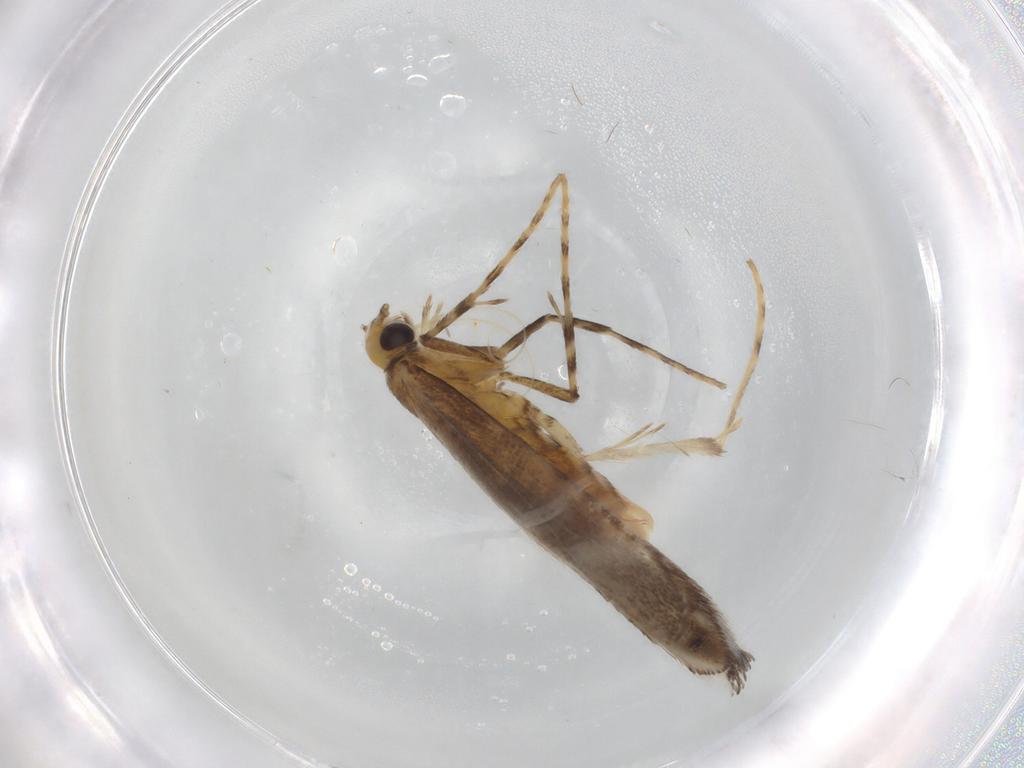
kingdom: Animalia
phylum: Arthropoda
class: Insecta
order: Lepidoptera
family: Gracillariidae
